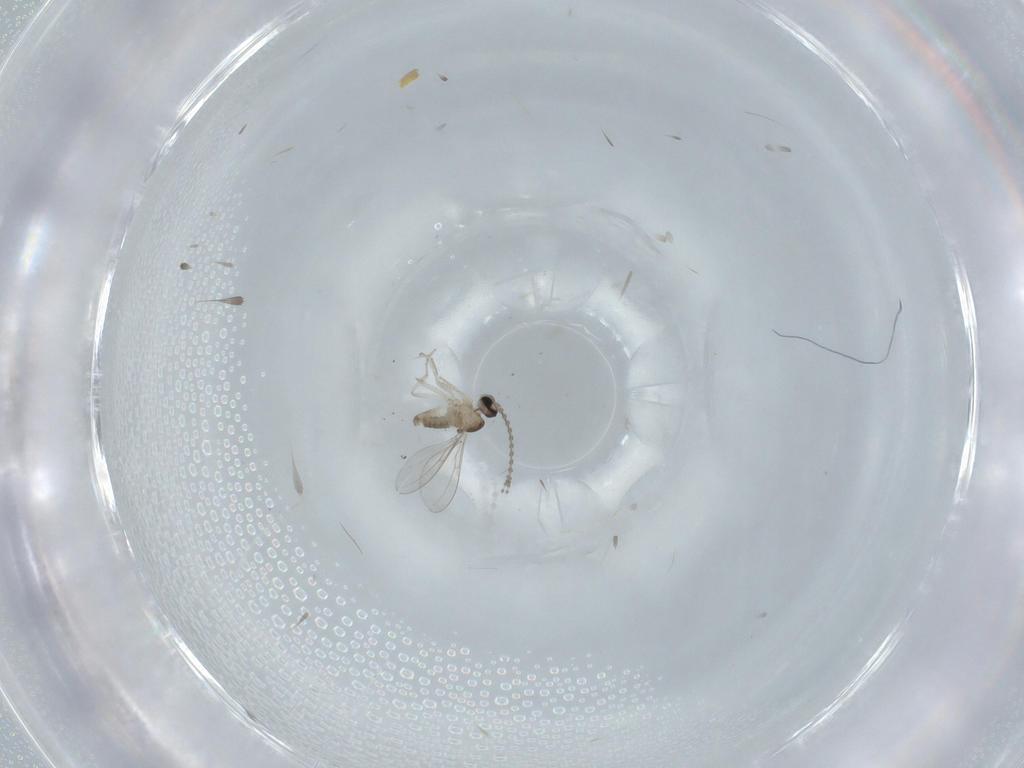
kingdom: Animalia
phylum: Arthropoda
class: Insecta
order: Diptera
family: Cecidomyiidae
